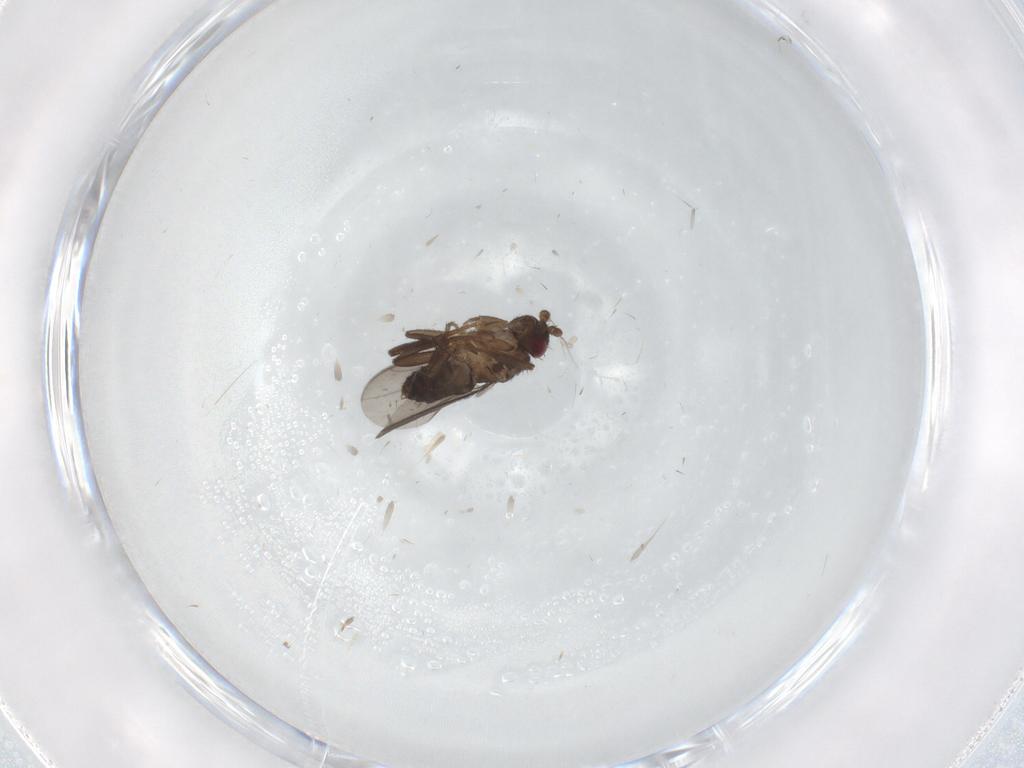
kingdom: Animalia
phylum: Arthropoda
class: Insecta
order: Diptera
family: Sphaeroceridae
